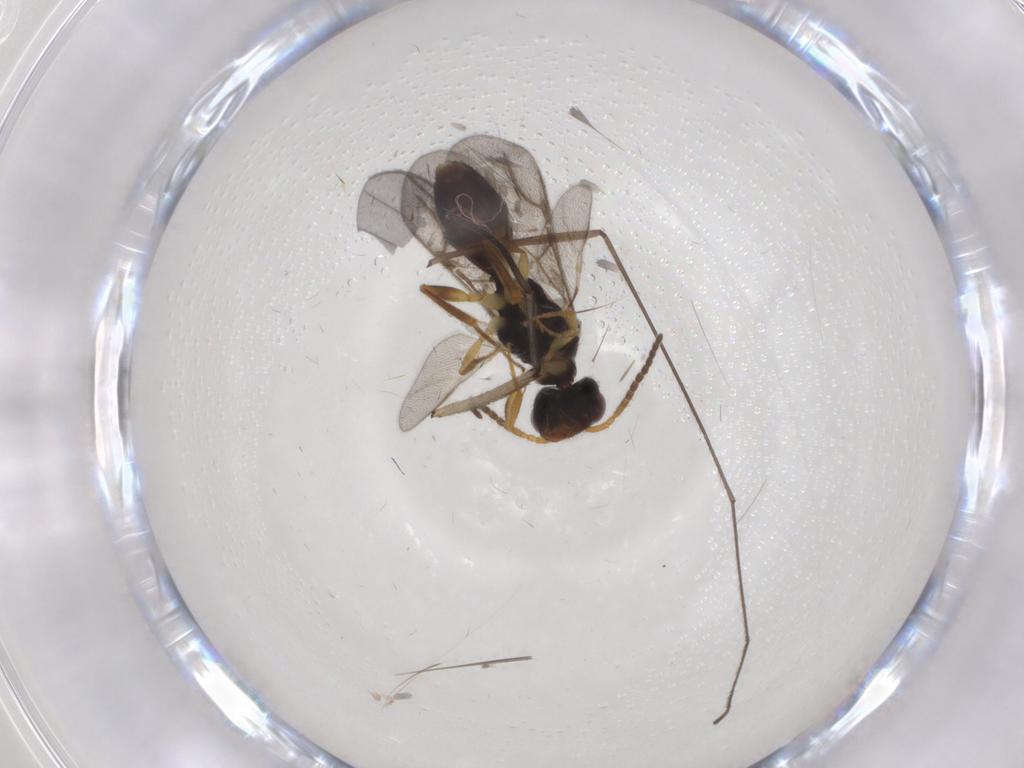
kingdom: Animalia
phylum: Arthropoda
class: Insecta
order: Hymenoptera
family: Bethylidae
